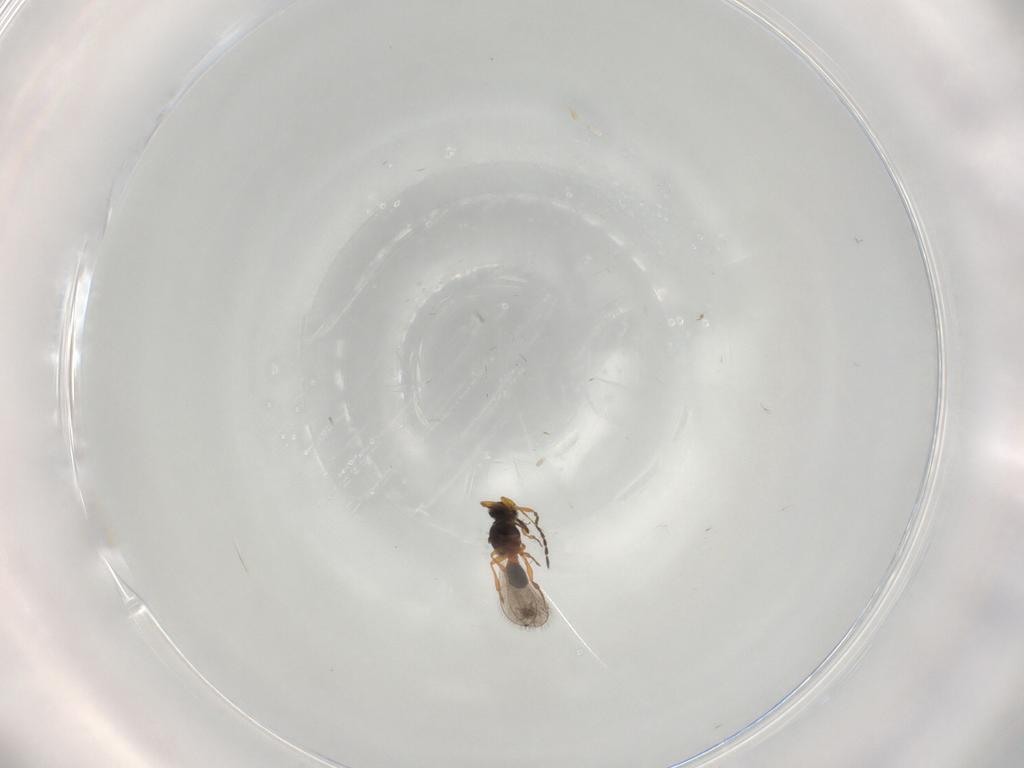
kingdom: Animalia
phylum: Arthropoda
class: Insecta
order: Hymenoptera
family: Platygastridae
